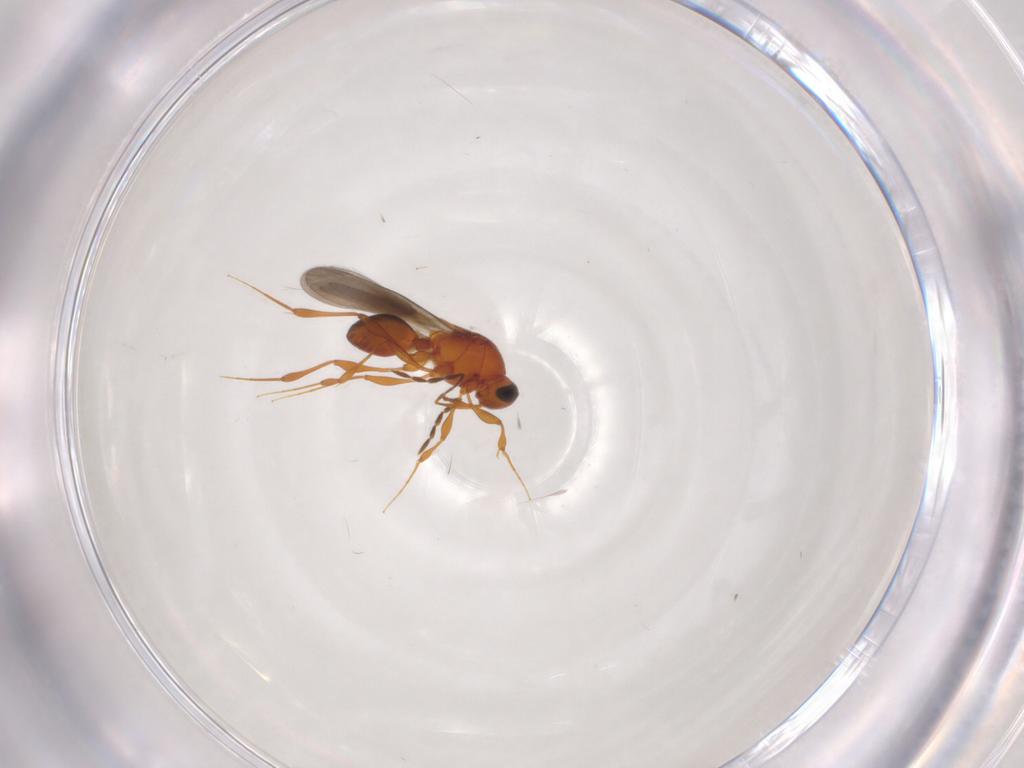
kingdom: Animalia
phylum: Arthropoda
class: Insecta
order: Hymenoptera
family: Platygastridae
